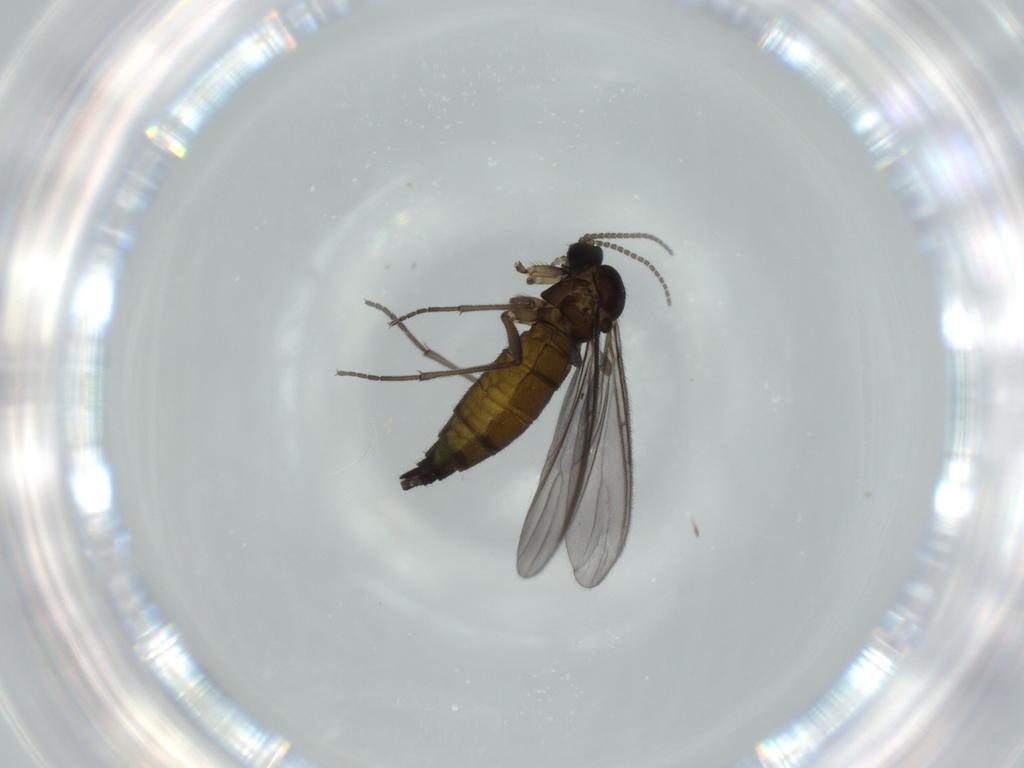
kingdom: Animalia
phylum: Arthropoda
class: Insecta
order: Diptera
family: Sciaridae
